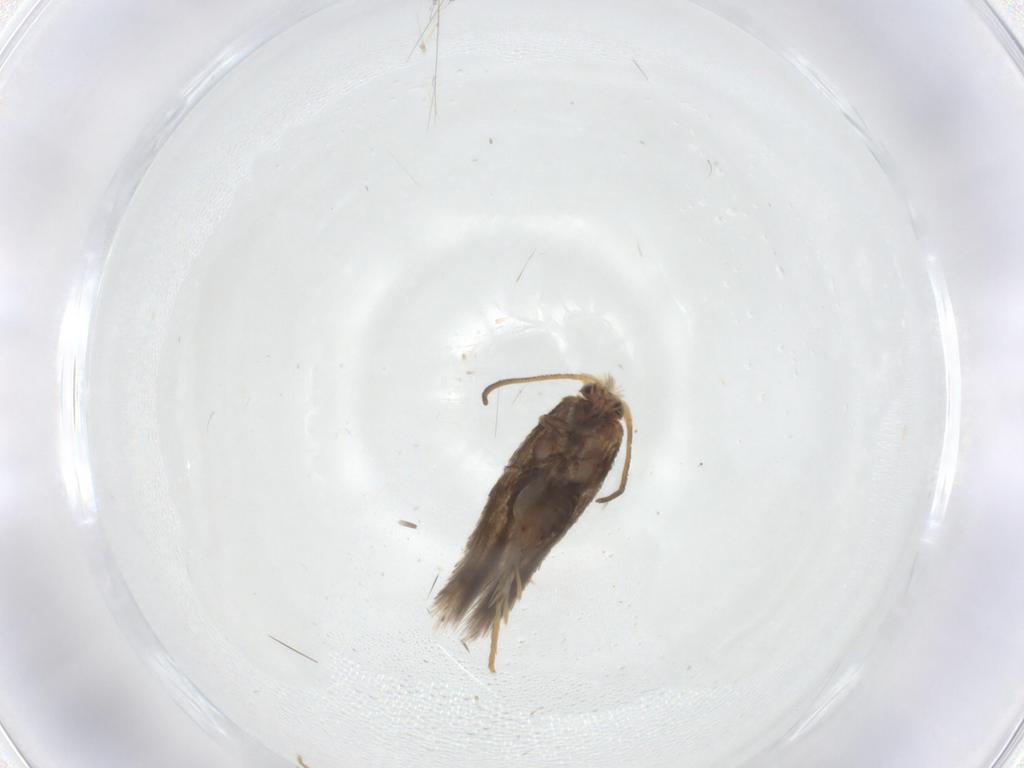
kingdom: Animalia
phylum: Arthropoda
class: Insecta
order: Lepidoptera
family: Nepticulidae
